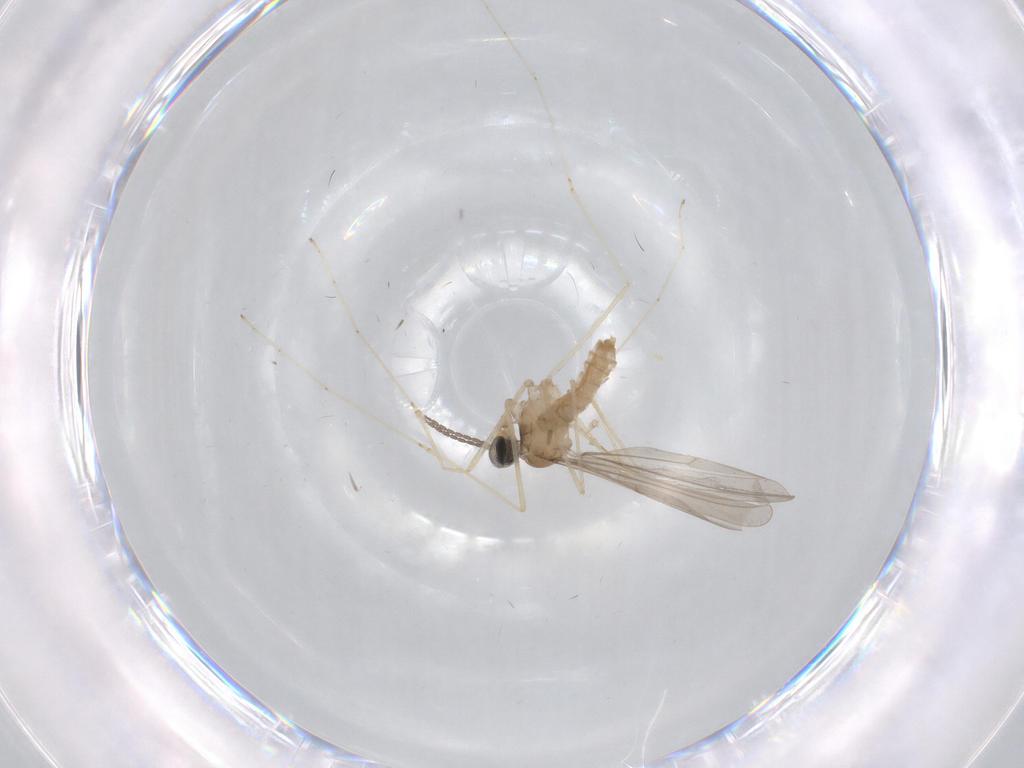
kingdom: Animalia
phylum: Arthropoda
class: Insecta
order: Diptera
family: Cecidomyiidae
